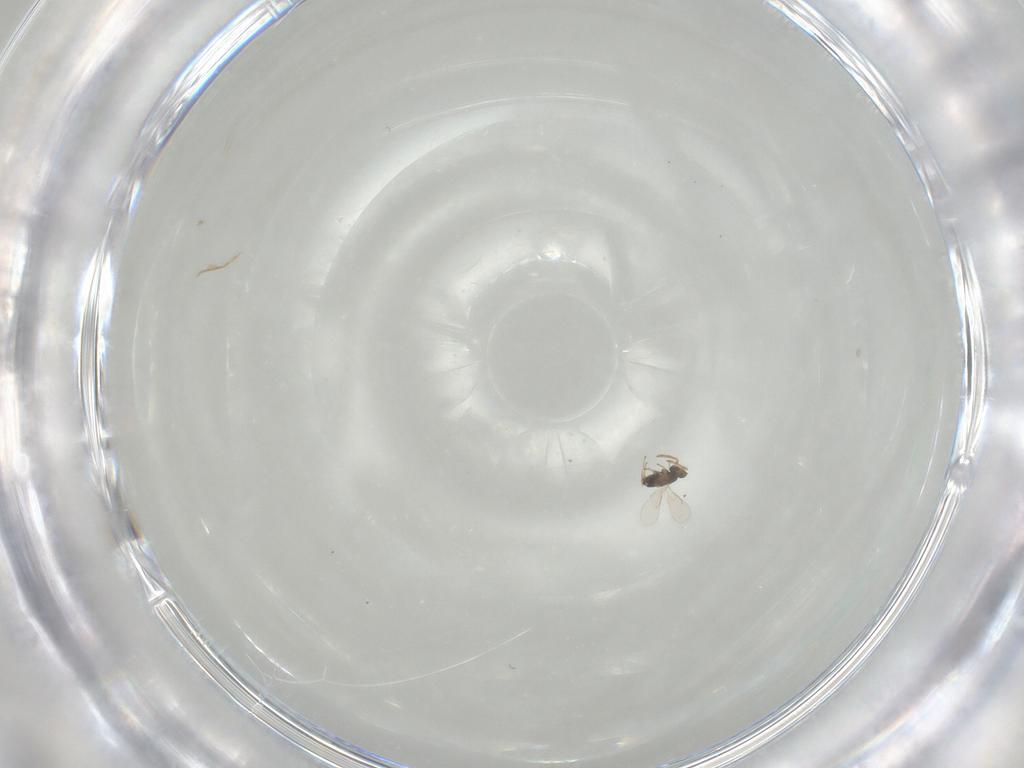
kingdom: Animalia
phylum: Arthropoda
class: Insecta
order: Hymenoptera
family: Aphelinidae
